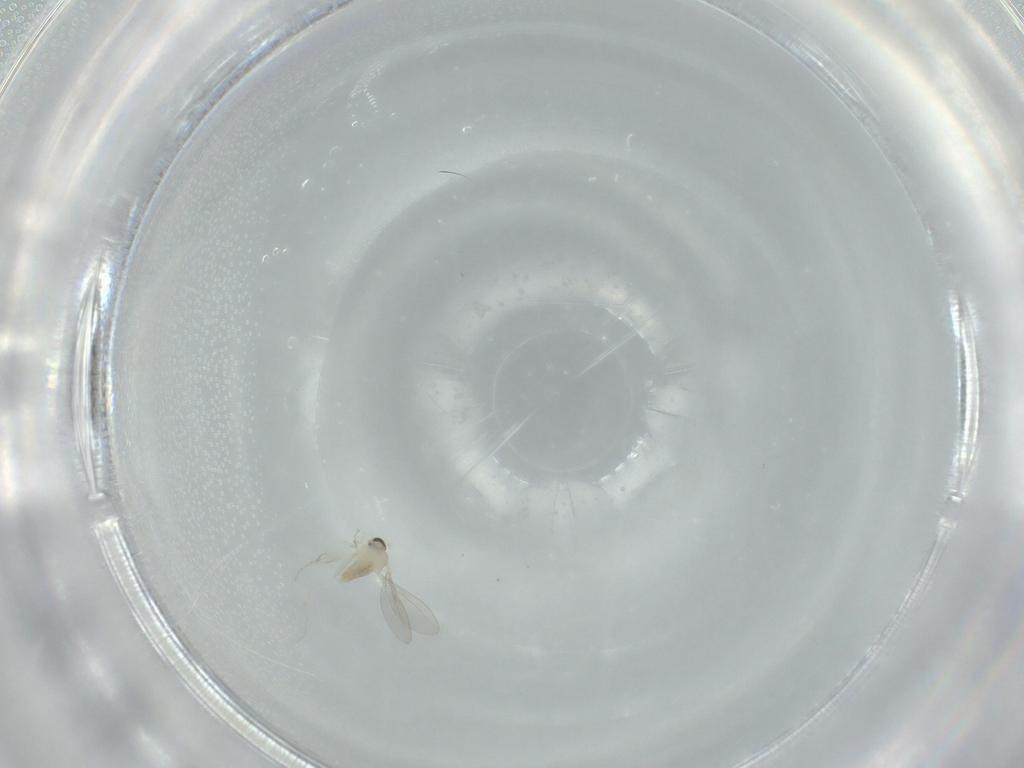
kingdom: Animalia
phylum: Arthropoda
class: Insecta
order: Diptera
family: Cecidomyiidae
